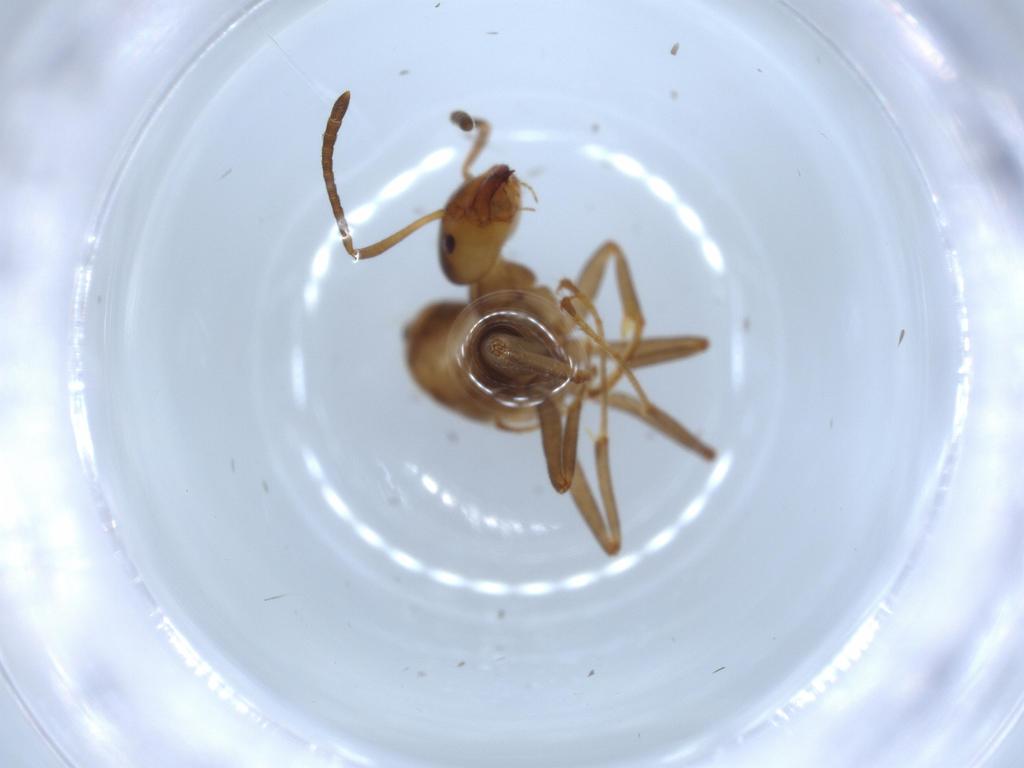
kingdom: Animalia
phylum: Arthropoda
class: Insecta
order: Hymenoptera
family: Formicidae
